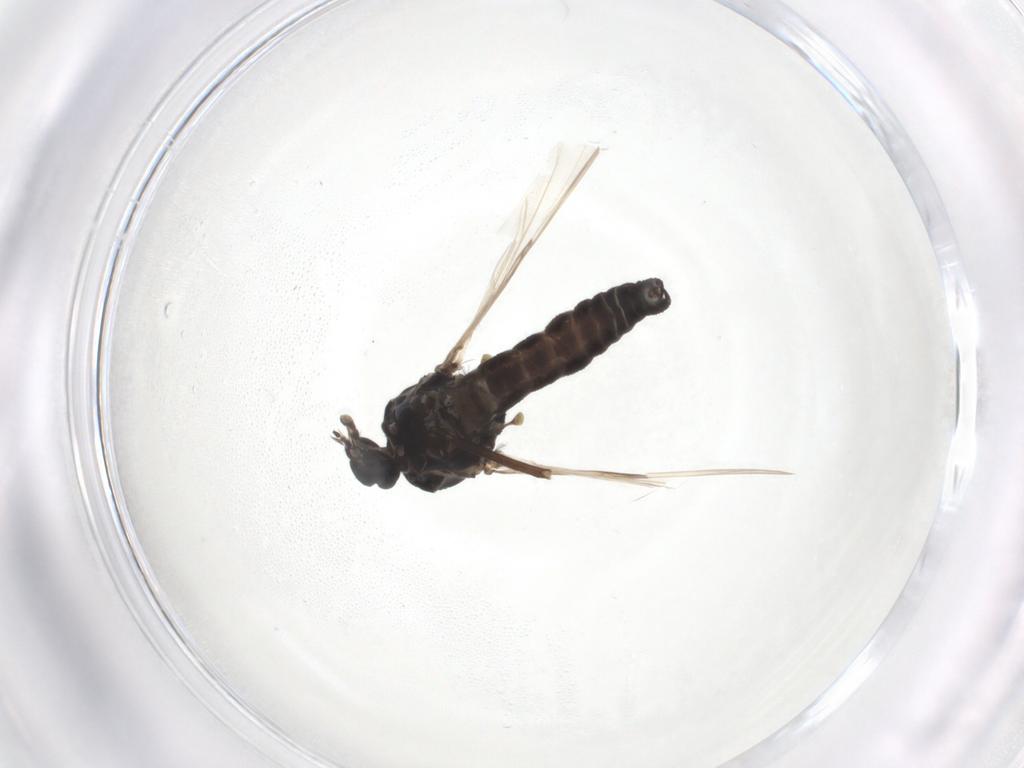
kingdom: Animalia
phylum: Arthropoda
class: Insecta
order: Diptera
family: Ceratopogonidae
